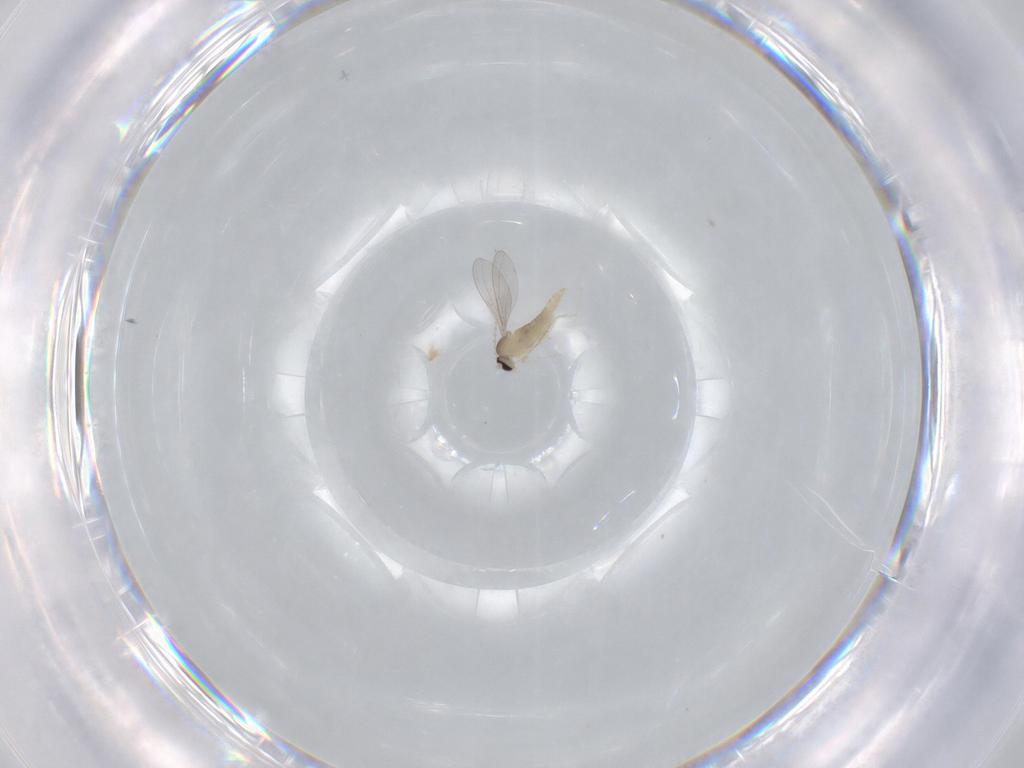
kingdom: Animalia
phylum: Arthropoda
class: Insecta
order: Diptera
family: Cecidomyiidae
